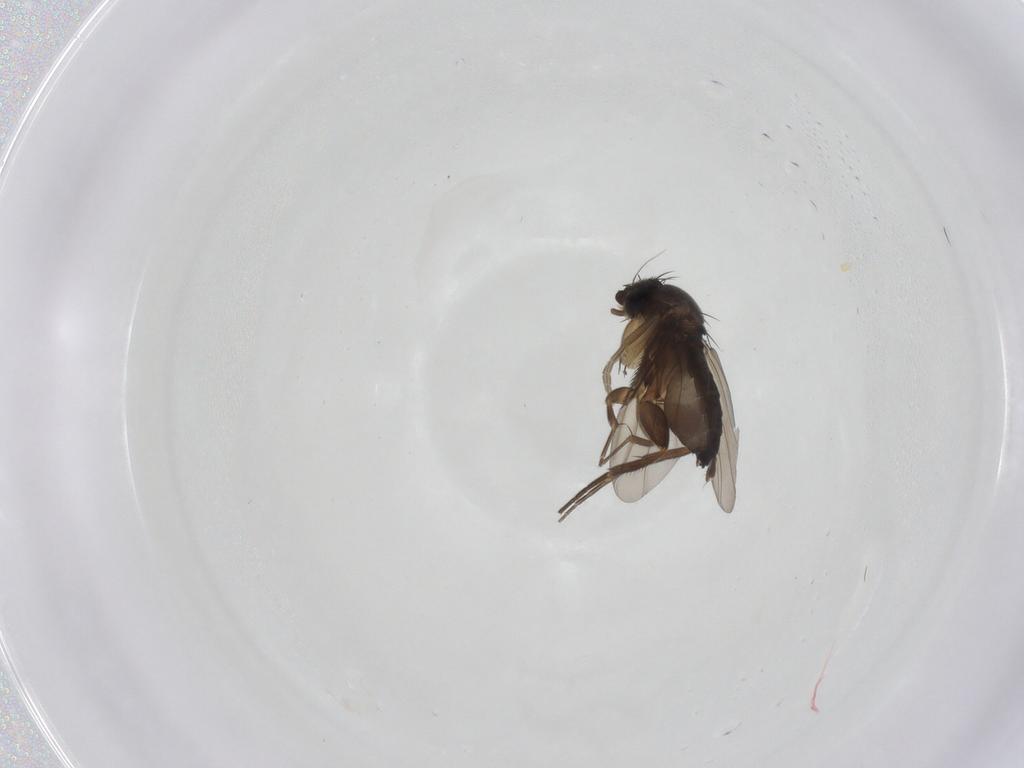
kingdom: Animalia
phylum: Arthropoda
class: Insecta
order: Diptera
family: Phoridae
